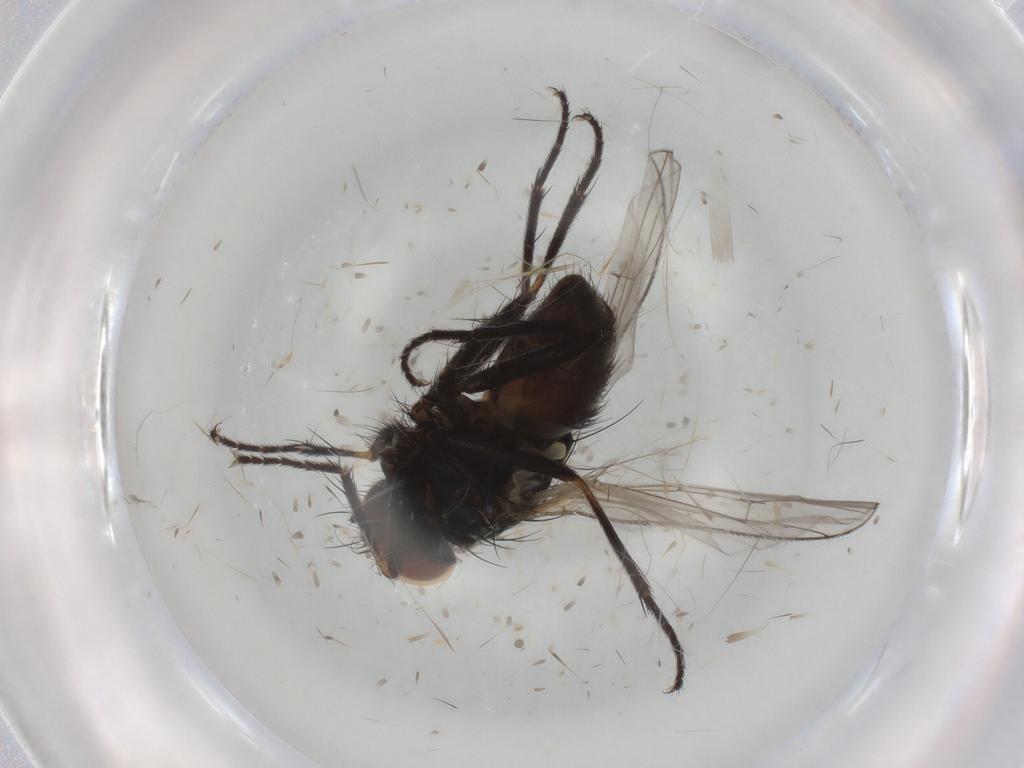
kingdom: Animalia
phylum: Arthropoda
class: Insecta
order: Diptera
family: Muscidae
